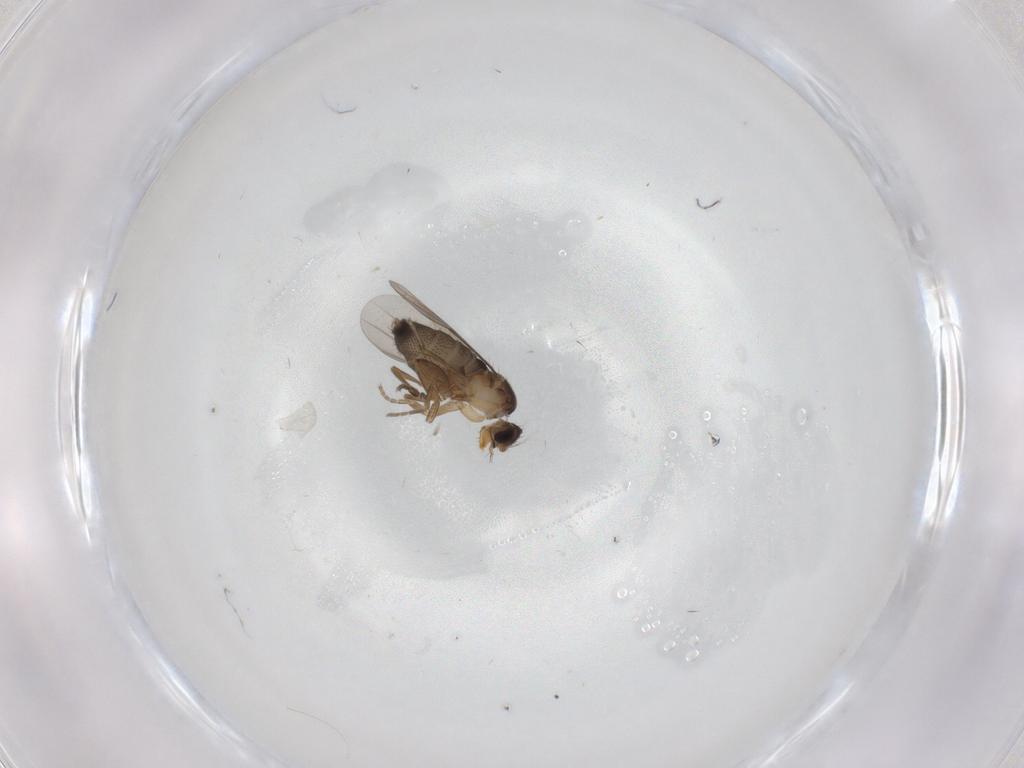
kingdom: Animalia
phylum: Arthropoda
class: Insecta
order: Diptera
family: Phoridae
